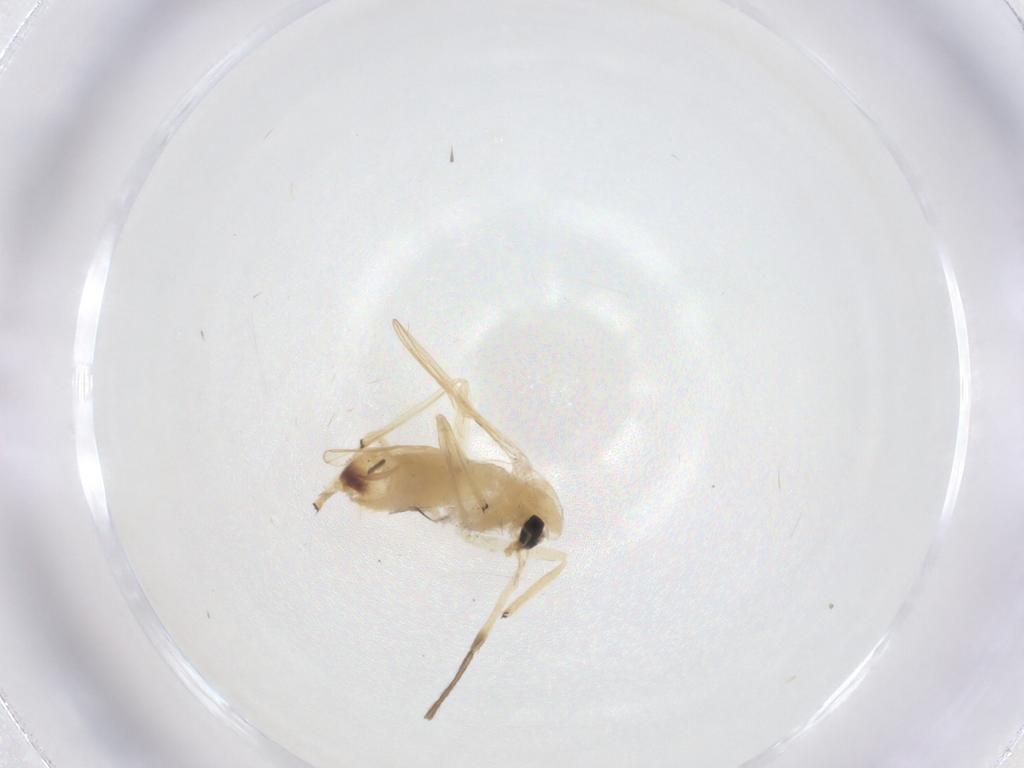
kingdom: Animalia
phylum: Arthropoda
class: Insecta
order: Diptera
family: Chironomidae
